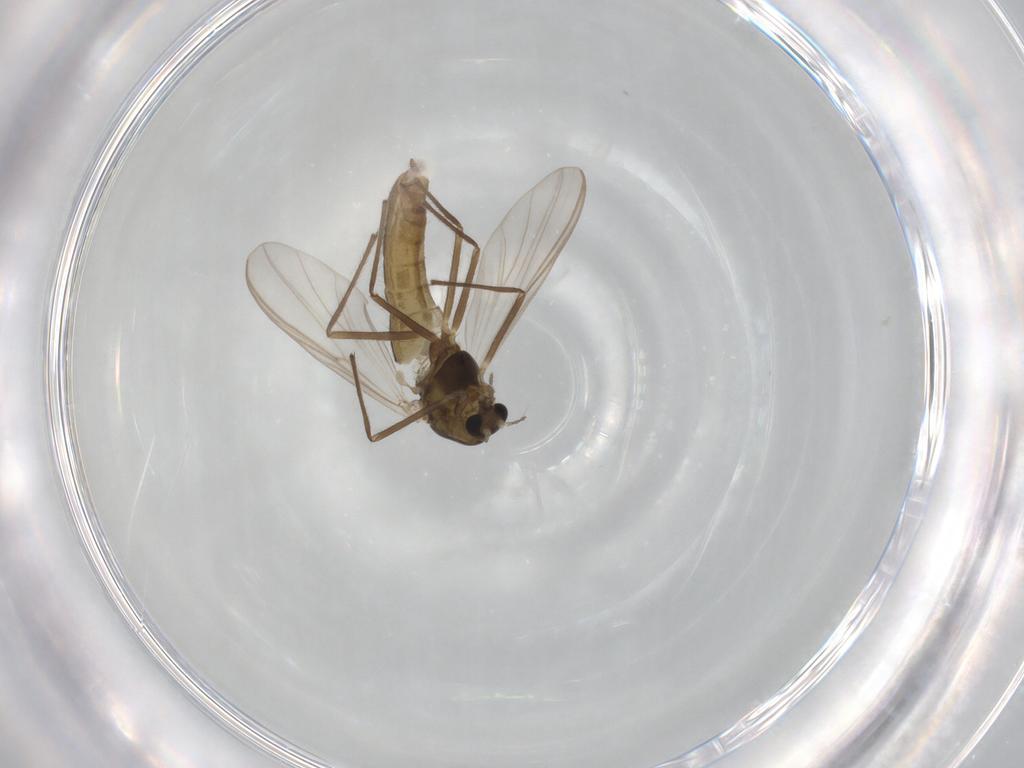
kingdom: Animalia
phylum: Arthropoda
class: Insecta
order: Diptera
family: Chironomidae
